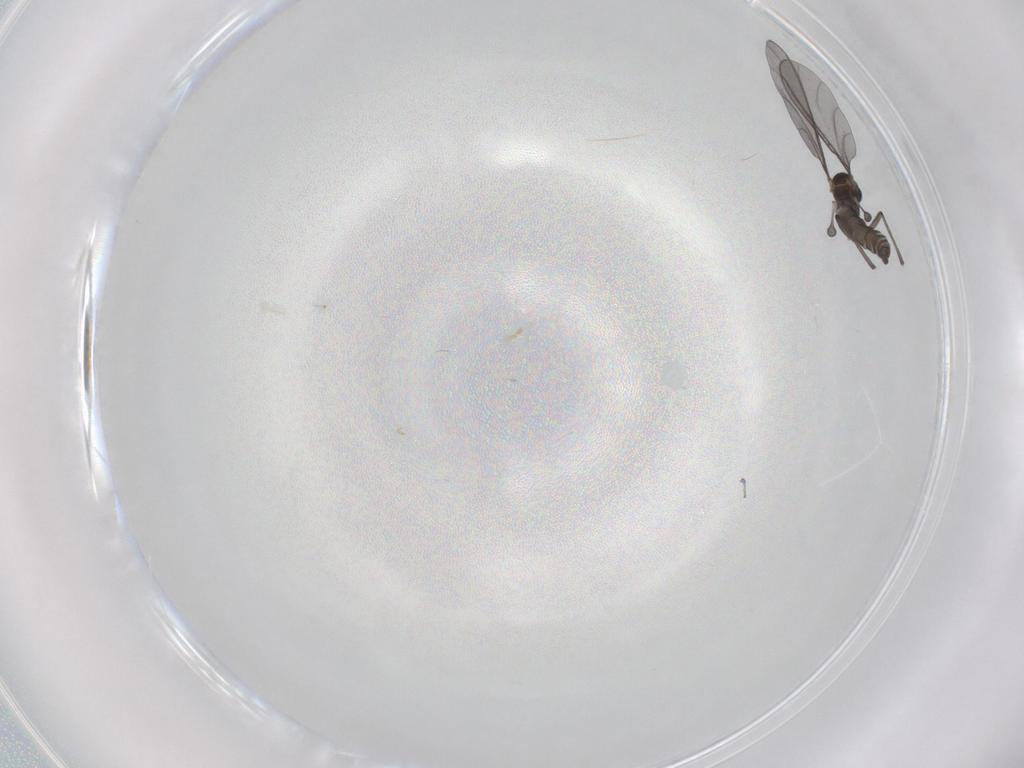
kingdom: Animalia
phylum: Arthropoda
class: Insecta
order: Diptera
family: Sciaridae
